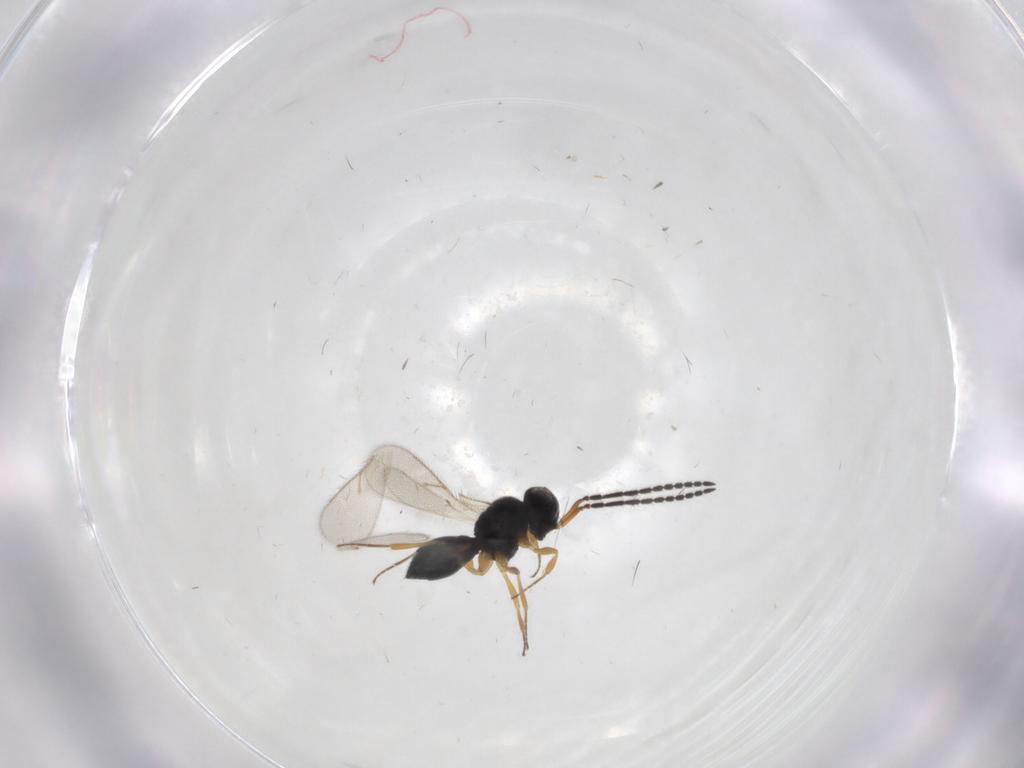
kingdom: Animalia
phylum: Arthropoda
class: Insecta
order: Hymenoptera
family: Scelionidae
